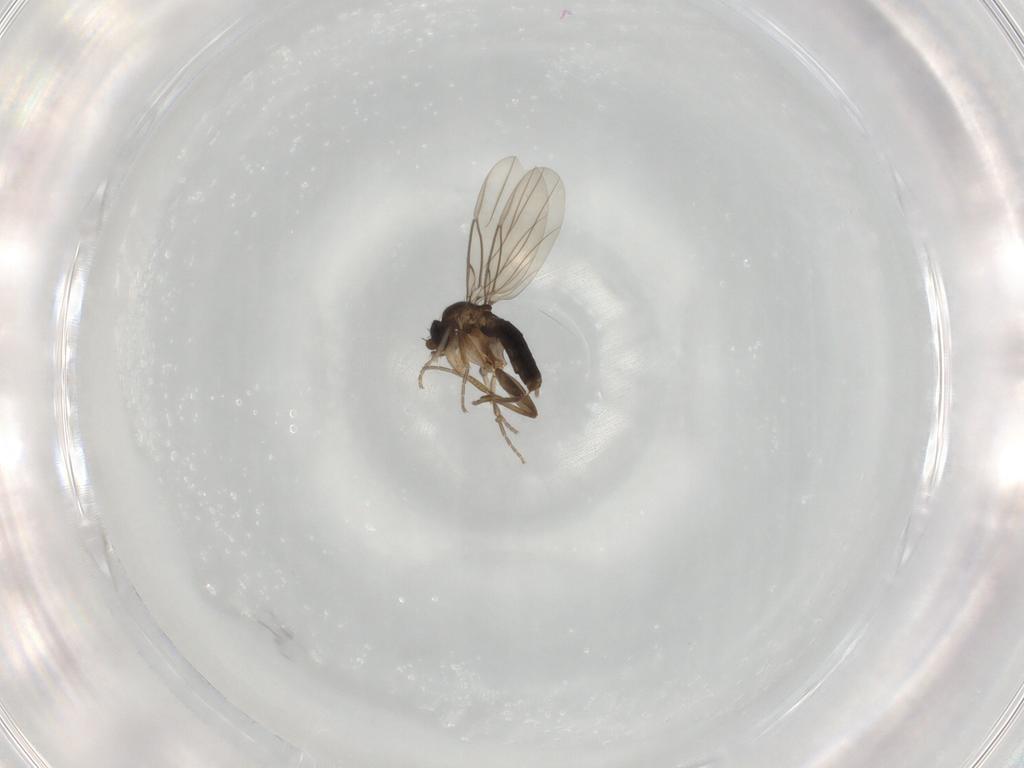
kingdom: Animalia
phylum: Arthropoda
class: Insecta
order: Diptera
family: Phoridae
